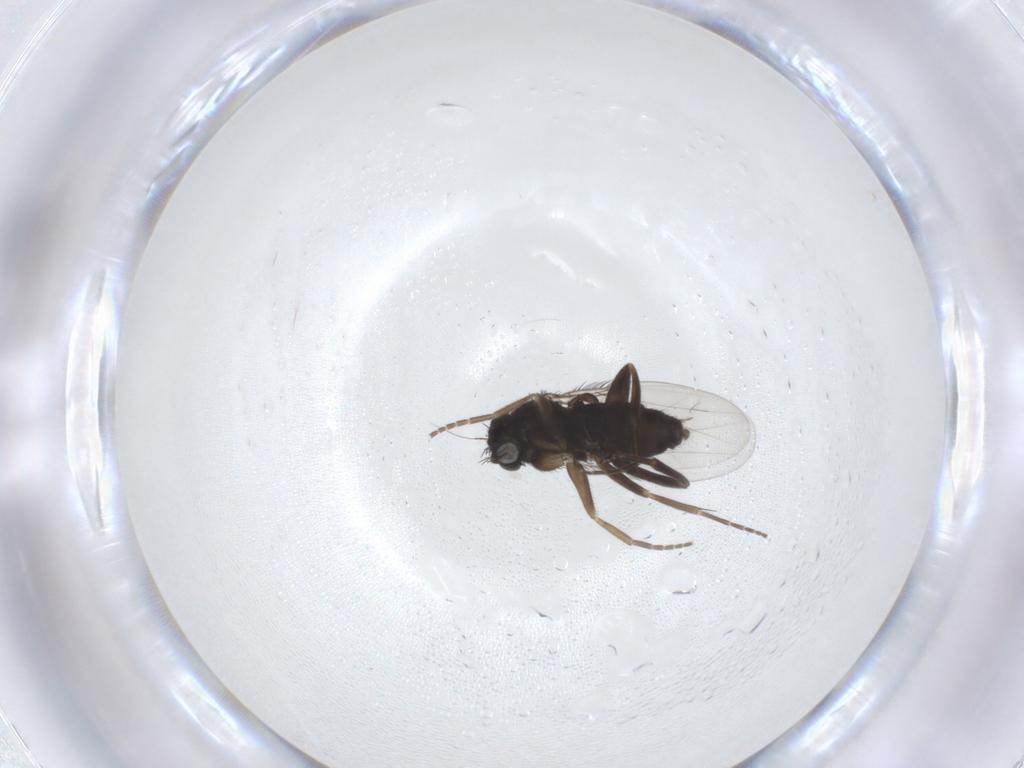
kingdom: Animalia
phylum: Arthropoda
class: Insecta
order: Diptera
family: Phoridae
